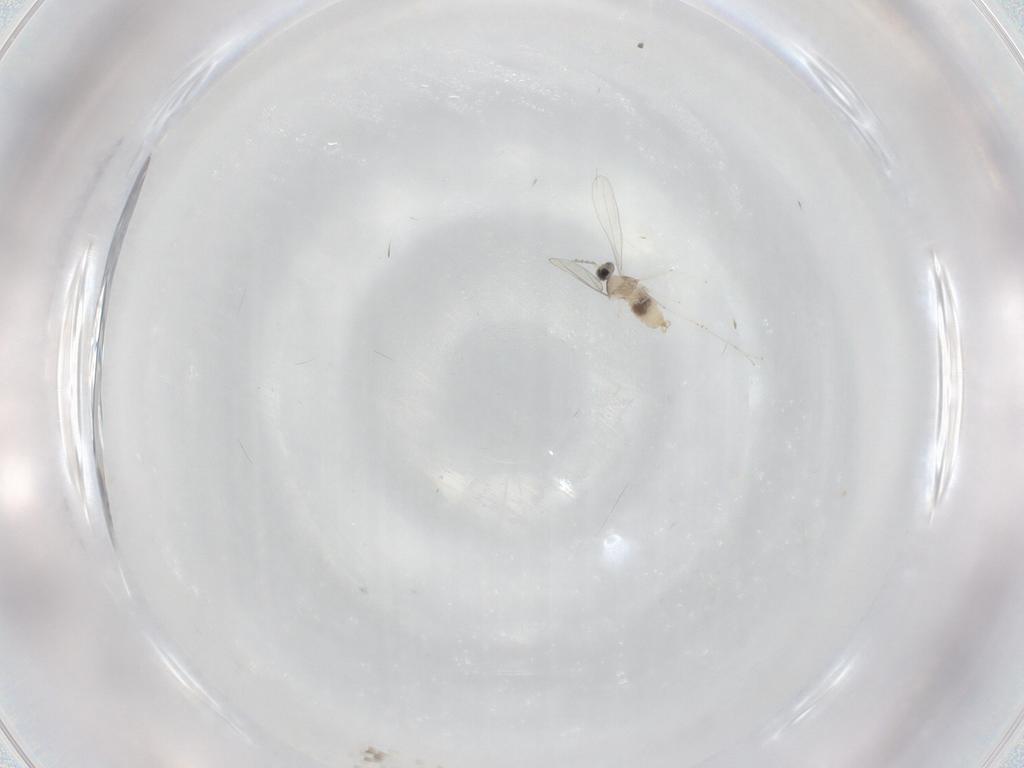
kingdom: Animalia
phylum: Arthropoda
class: Insecta
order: Diptera
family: Cecidomyiidae
